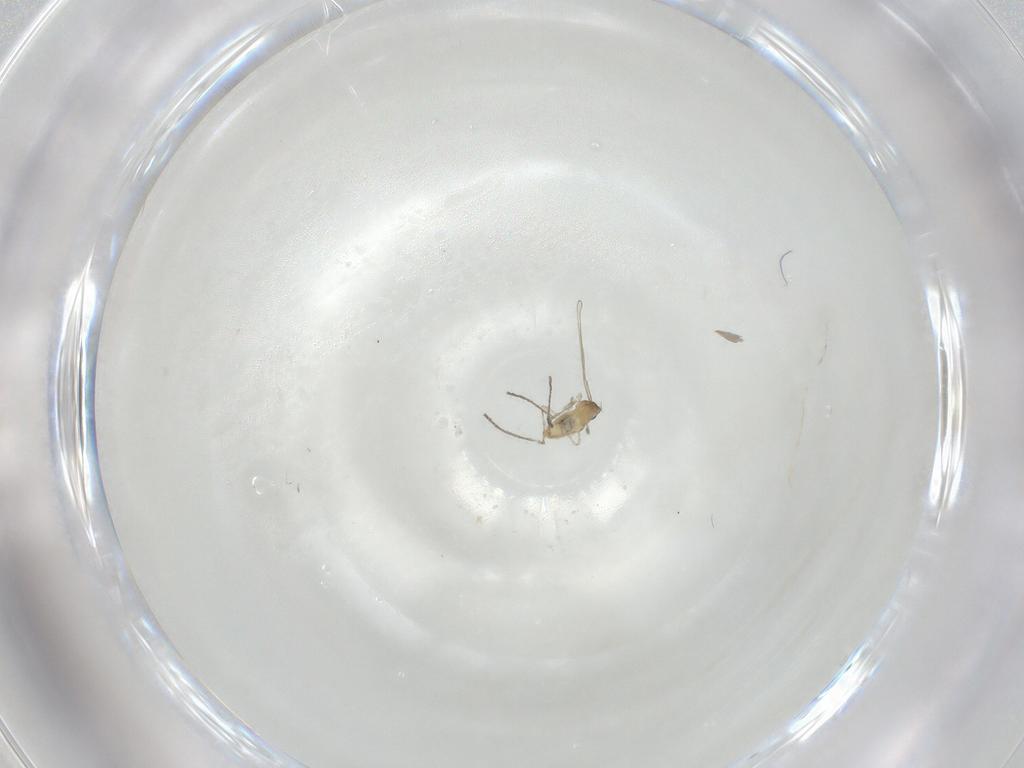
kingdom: Animalia
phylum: Arthropoda
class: Insecta
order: Diptera
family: Cecidomyiidae
